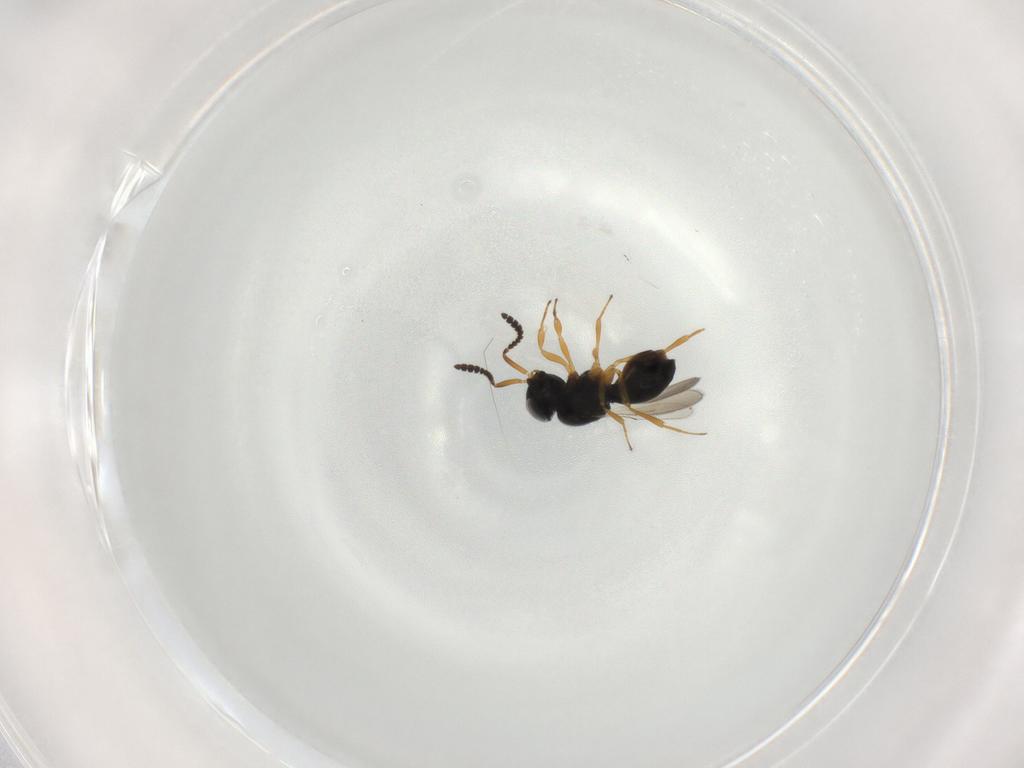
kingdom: Animalia
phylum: Arthropoda
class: Insecta
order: Hymenoptera
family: Scelionidae
